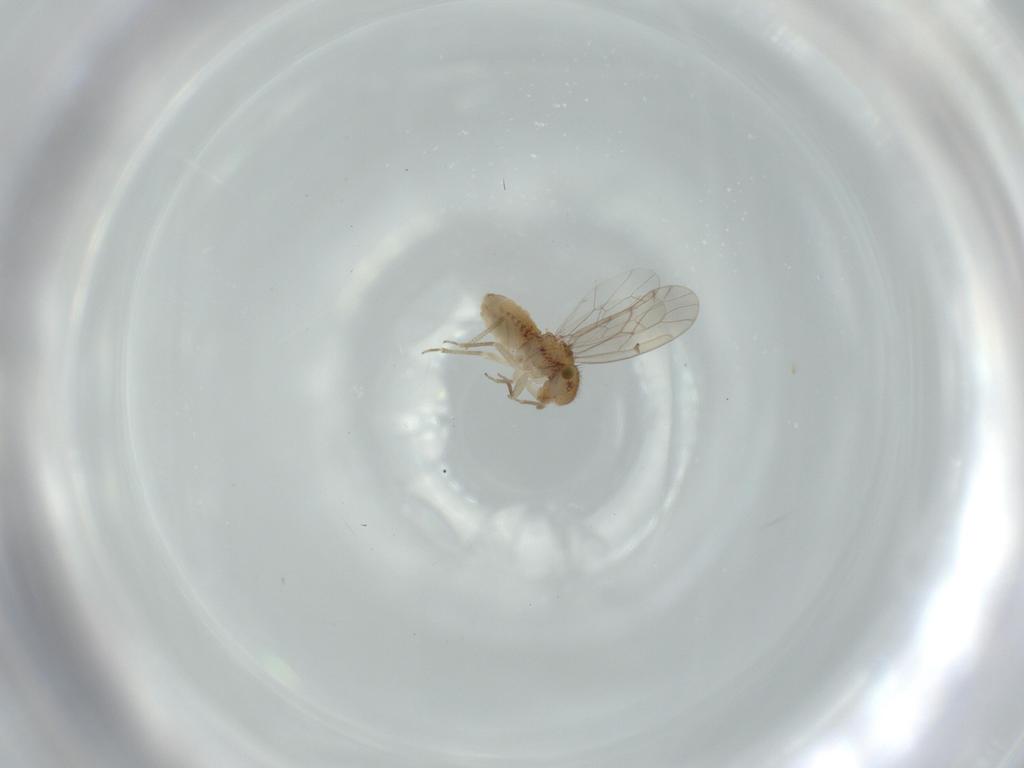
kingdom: Animalia
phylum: Arthropoda
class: Insecta
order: Psocodea
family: Ectopsocidae
